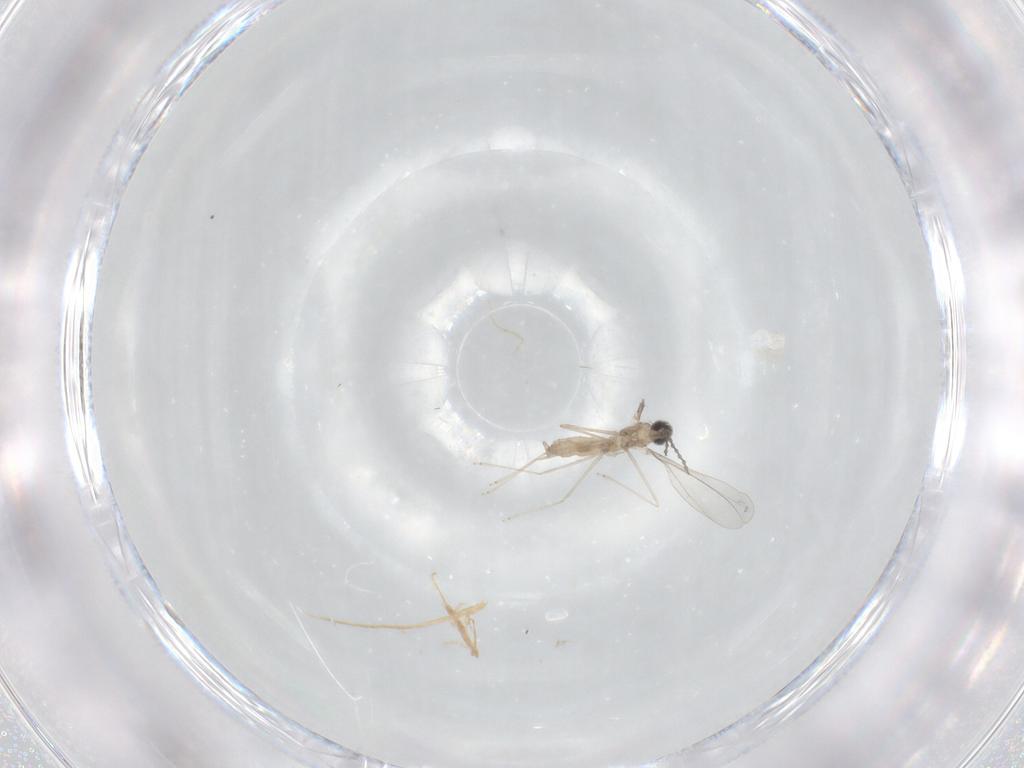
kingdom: Animalia
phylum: Arthropoda
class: Insecta
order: Diptera
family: Cecidomyiidae
